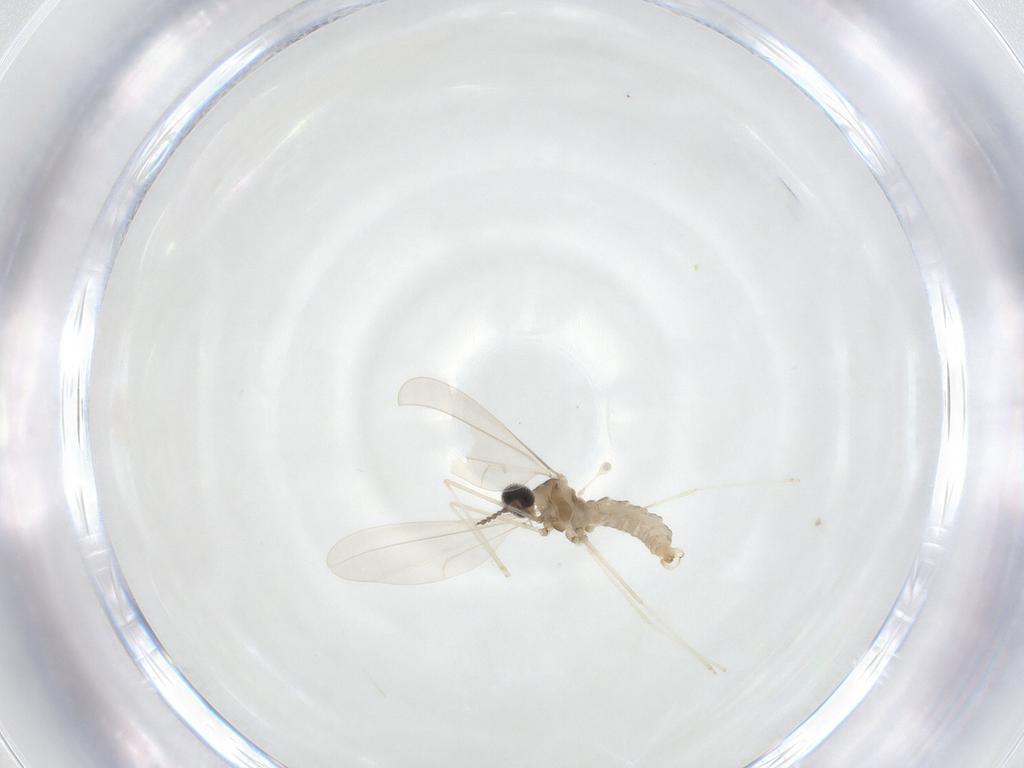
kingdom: Animalia
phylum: Arthropoda
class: Insecta
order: Diptera
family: Cecidomyiidae
